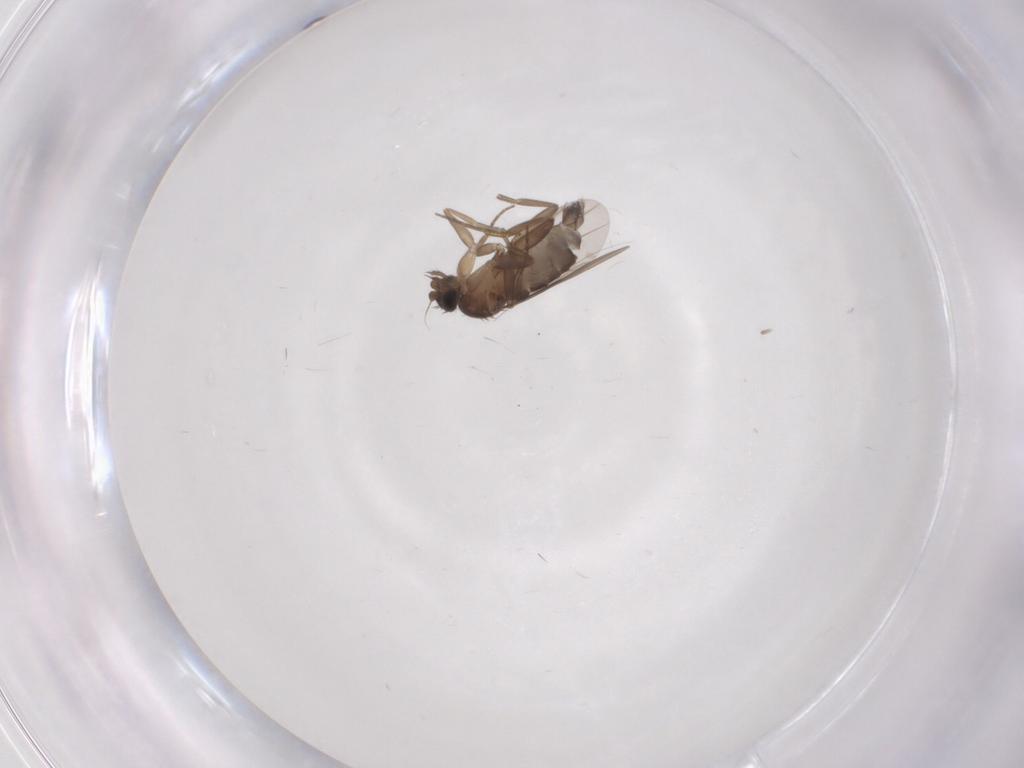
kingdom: Animalia
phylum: Arthropoda
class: Insecta
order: Diptera
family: Phoridae
